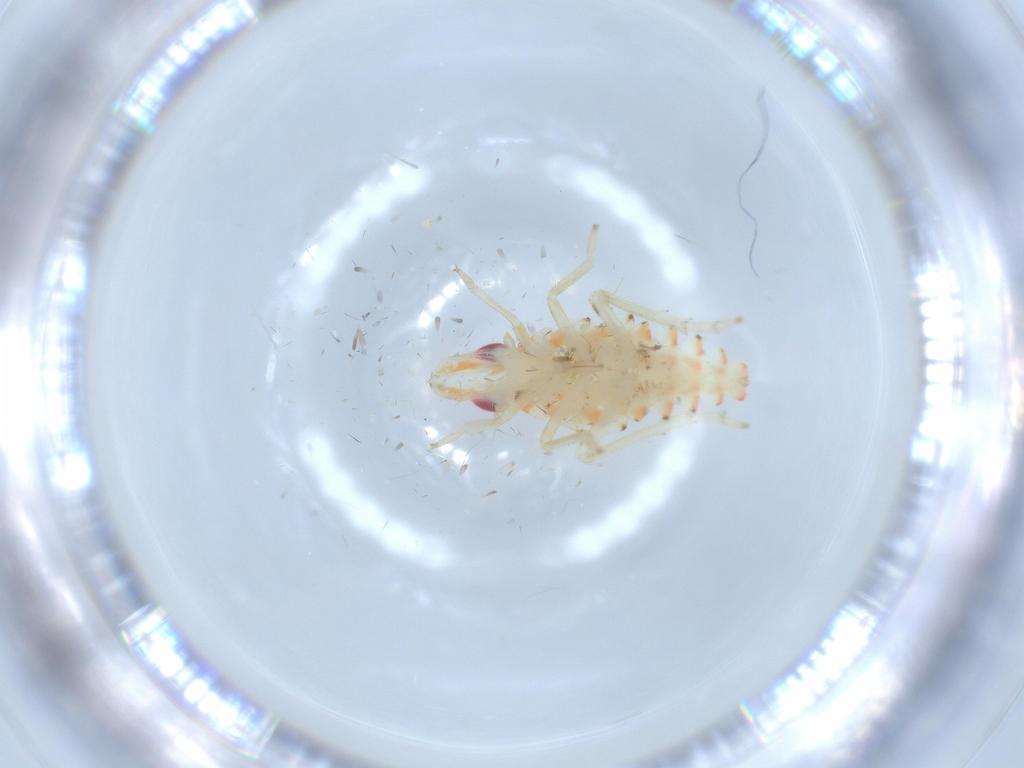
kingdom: Animalia
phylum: Arthropoda
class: Insecta
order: Hemiptera
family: Tropiduchidae
